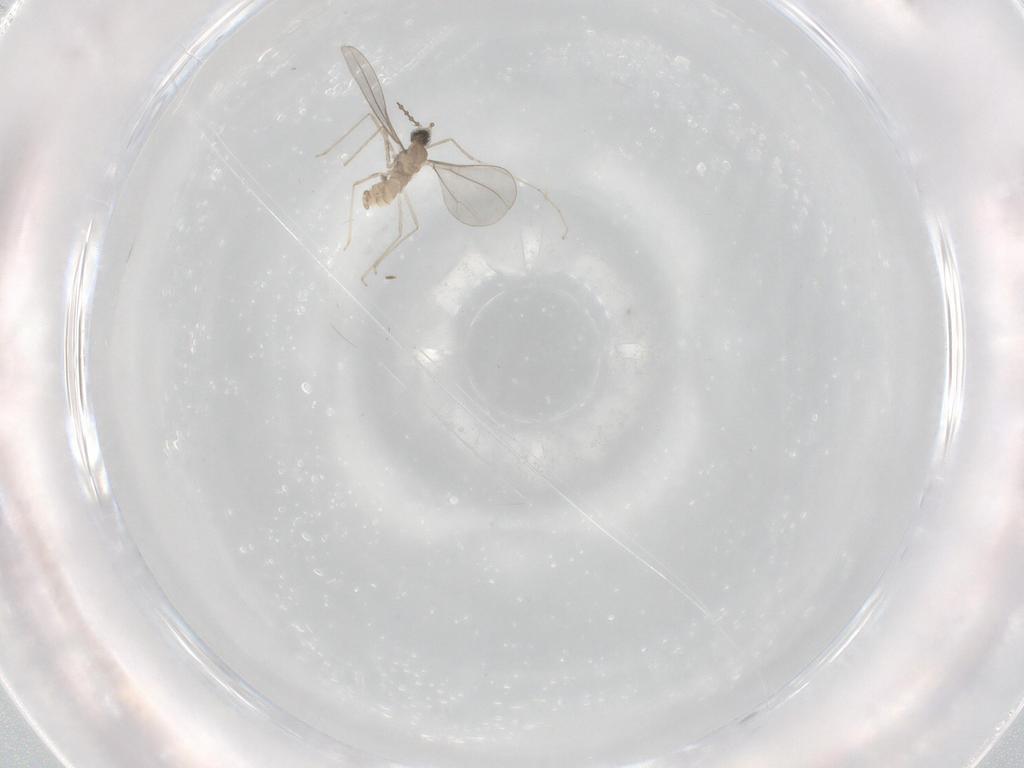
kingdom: Animalia
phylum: Arthropoda
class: Insecta
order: Diptera
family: Cecidomyiidae
